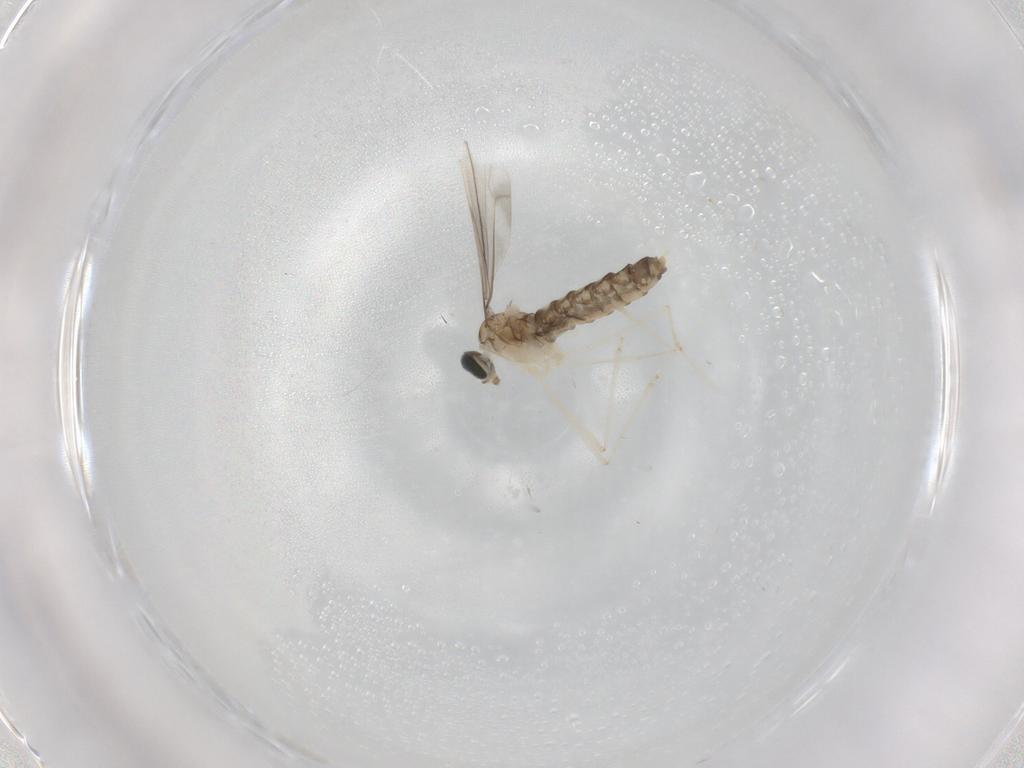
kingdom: Animalia
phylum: Arthropoda
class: Insecta
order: Diptera
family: Cecidomyiidae
